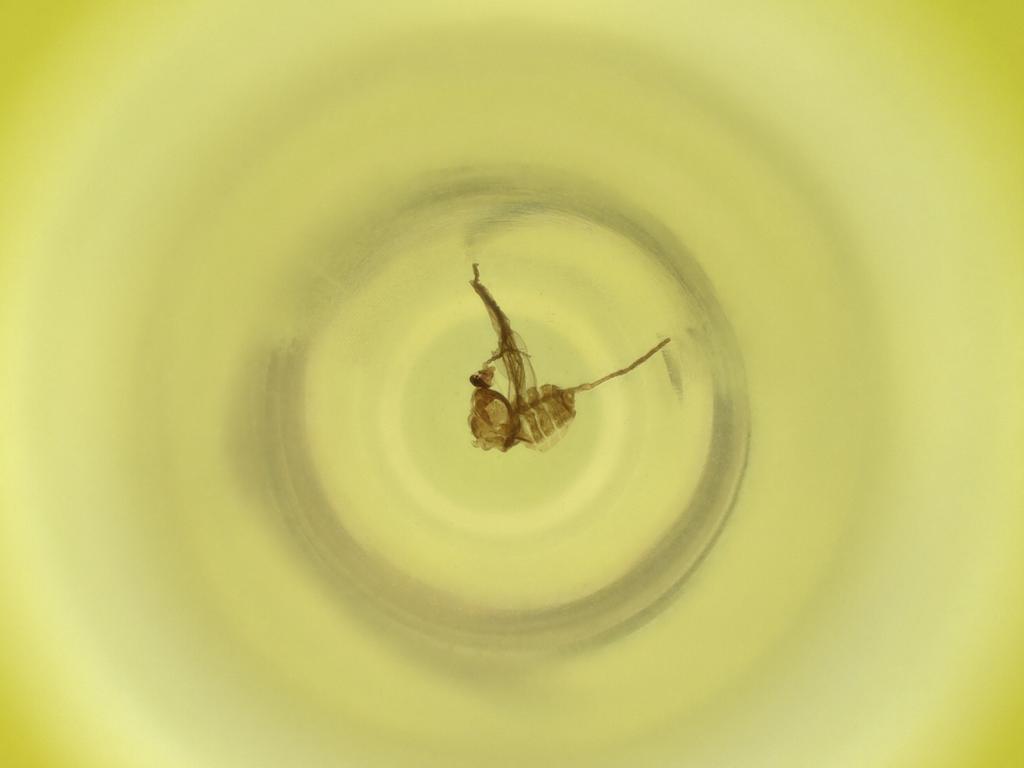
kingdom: Animalia
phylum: Arthropoda
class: Insecta
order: Diptera
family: Cecidomyiidae
